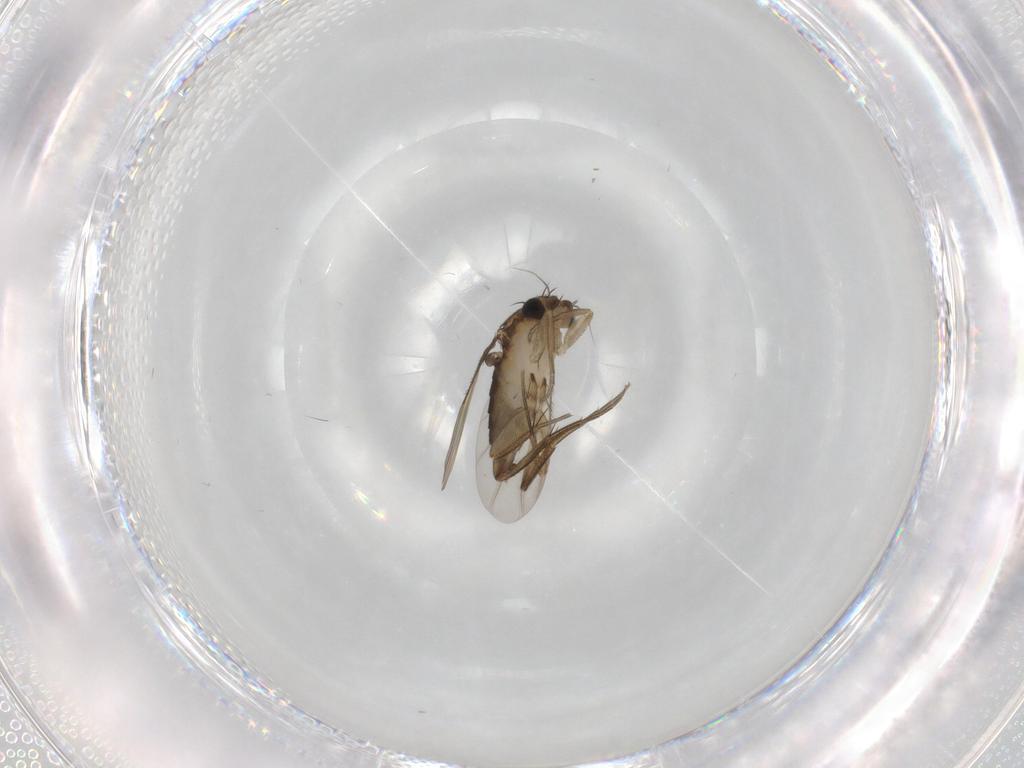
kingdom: Animalia
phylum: Arthropoda
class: Insecta
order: Diptera
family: Phoridae
